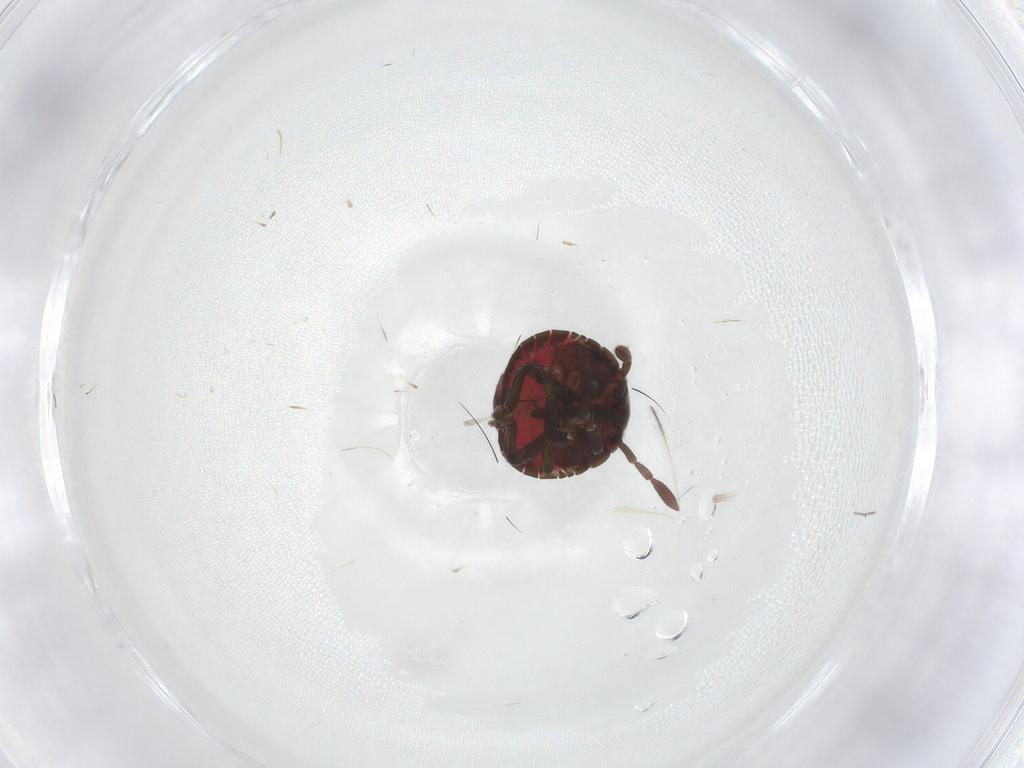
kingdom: Animalia
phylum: Arthropoda
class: Insecta
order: Hemiptera
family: Pentatomidae
